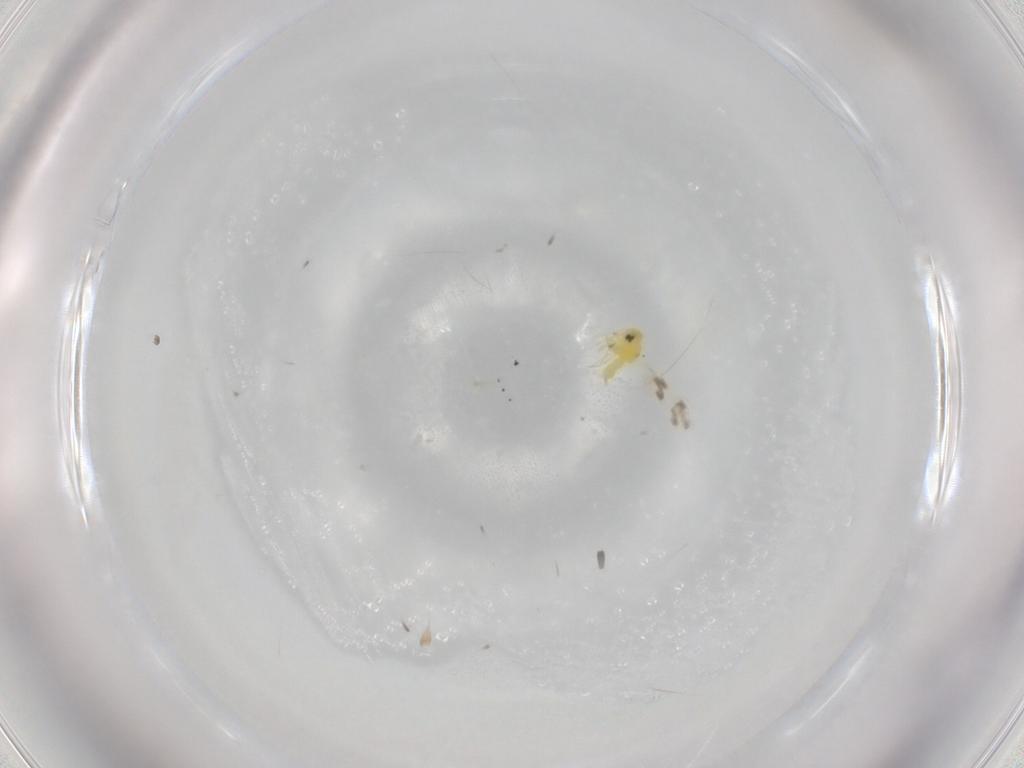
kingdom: Animalia
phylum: Arthropoda
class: Insecta
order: Hemiptera
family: Aleyrodidae
